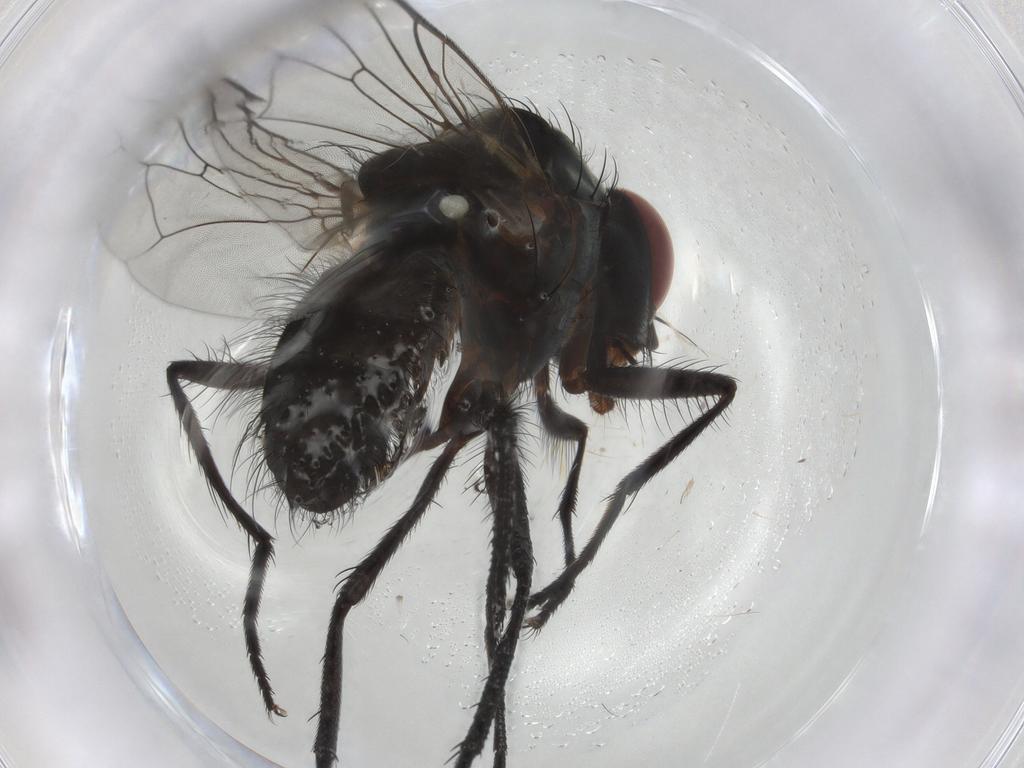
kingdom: Animalia
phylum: Arthropoda
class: Insecta
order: Diptera
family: Anthomyiidae
